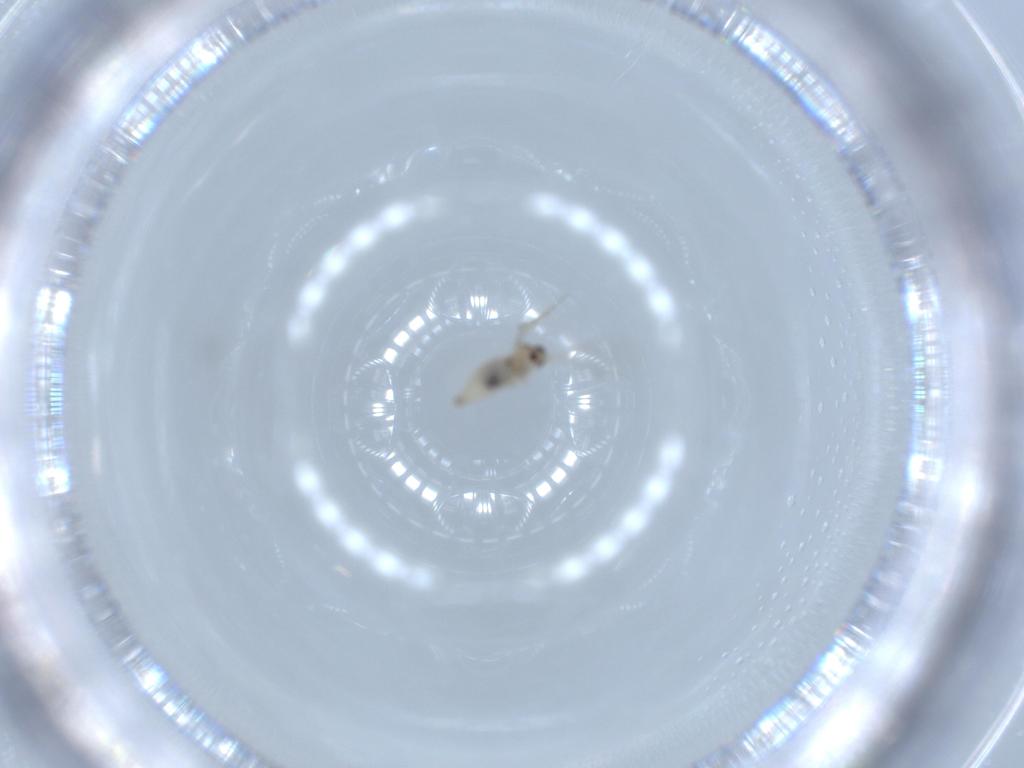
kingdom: Animalia
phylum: Arthropoda
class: Insecta
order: Diptera
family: Cecidomyiidae
